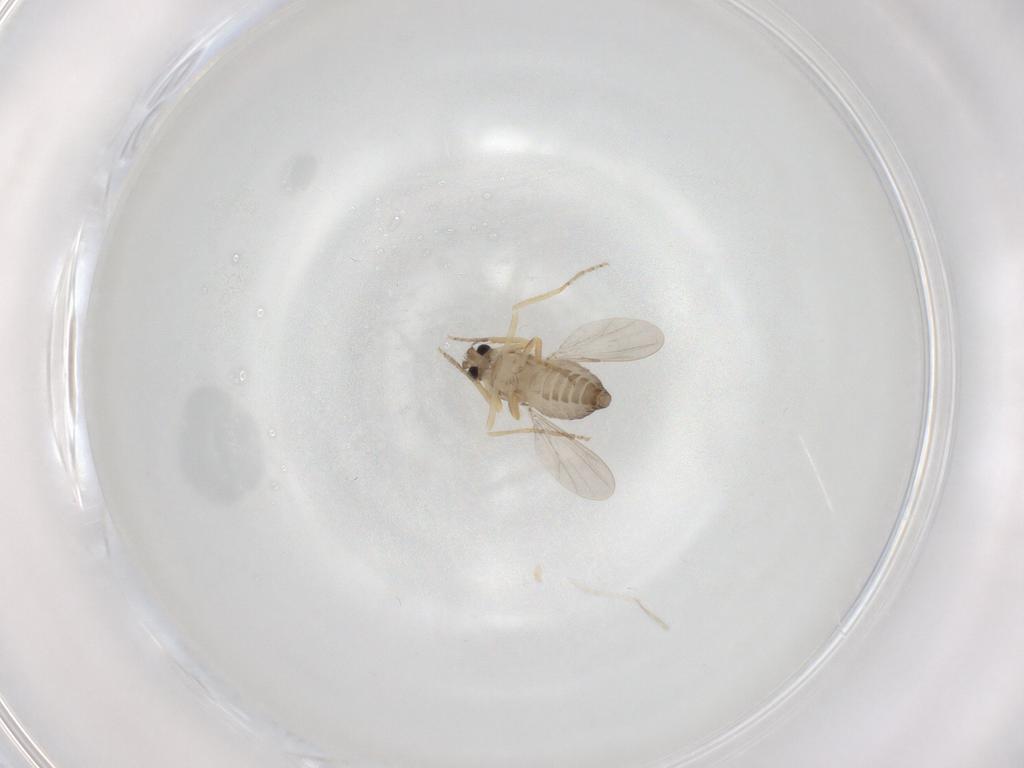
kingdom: Animalia
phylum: Arthropoda
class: Insecta
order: Diptera
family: Ceratopogonidae
